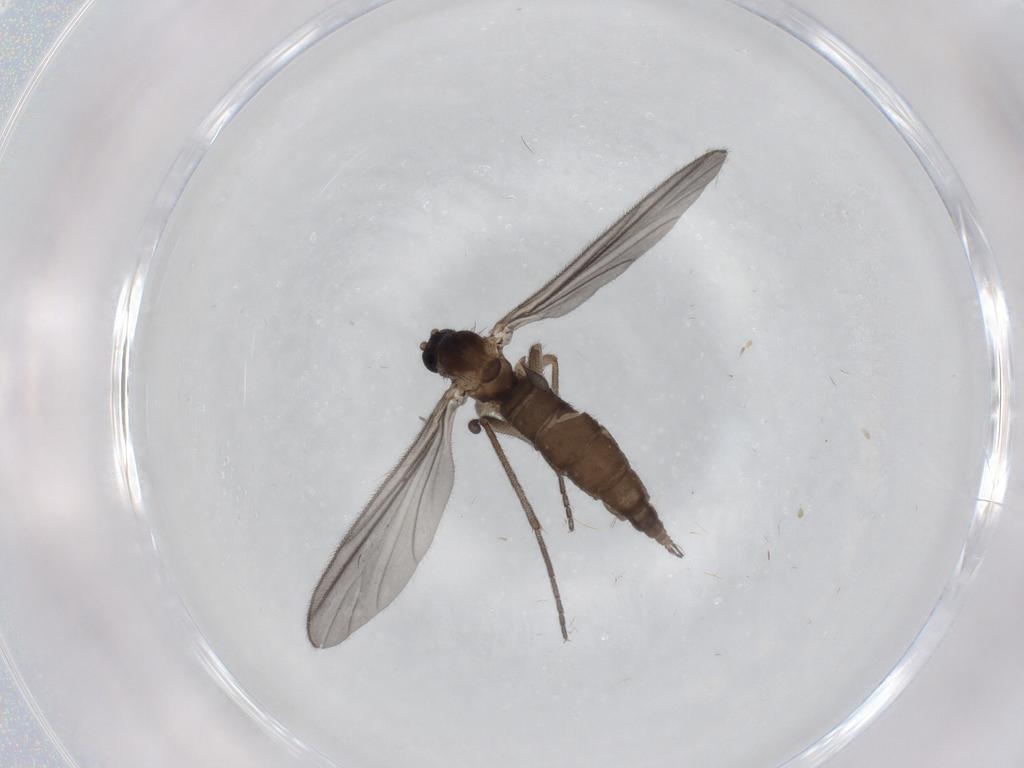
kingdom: Animalia
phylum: Arthropoda
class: Insecta
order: Diptera
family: Sciaridae
